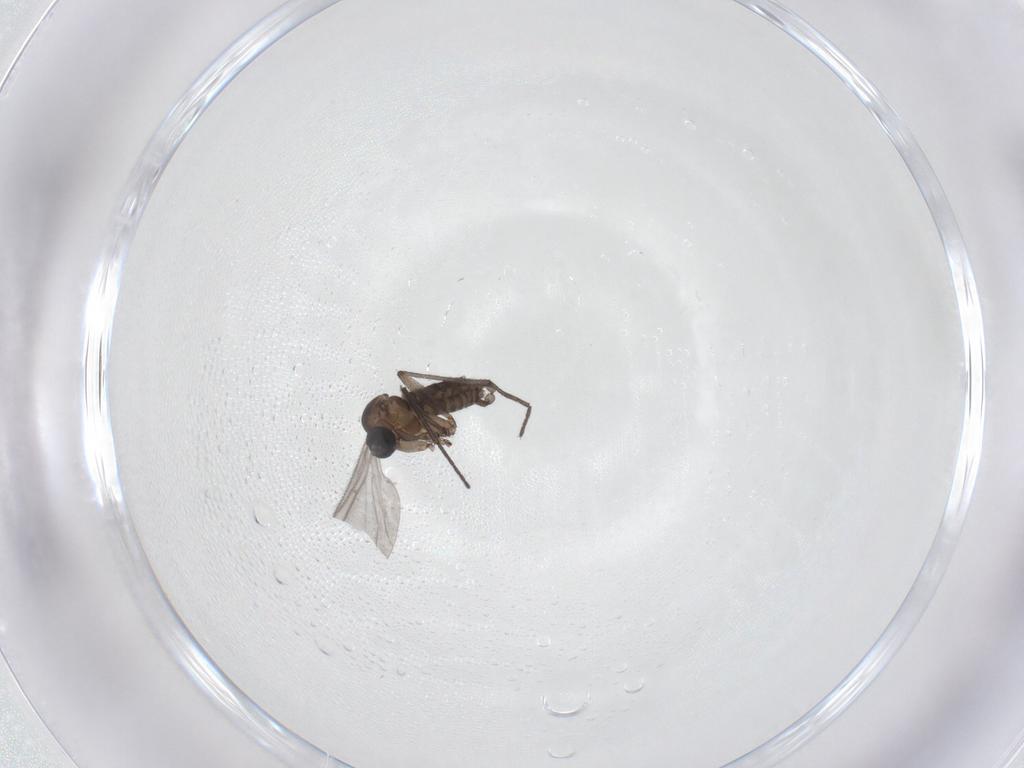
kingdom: Animalia
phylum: Arthropoda
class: Insecta
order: Diptera
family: Sciaridae
